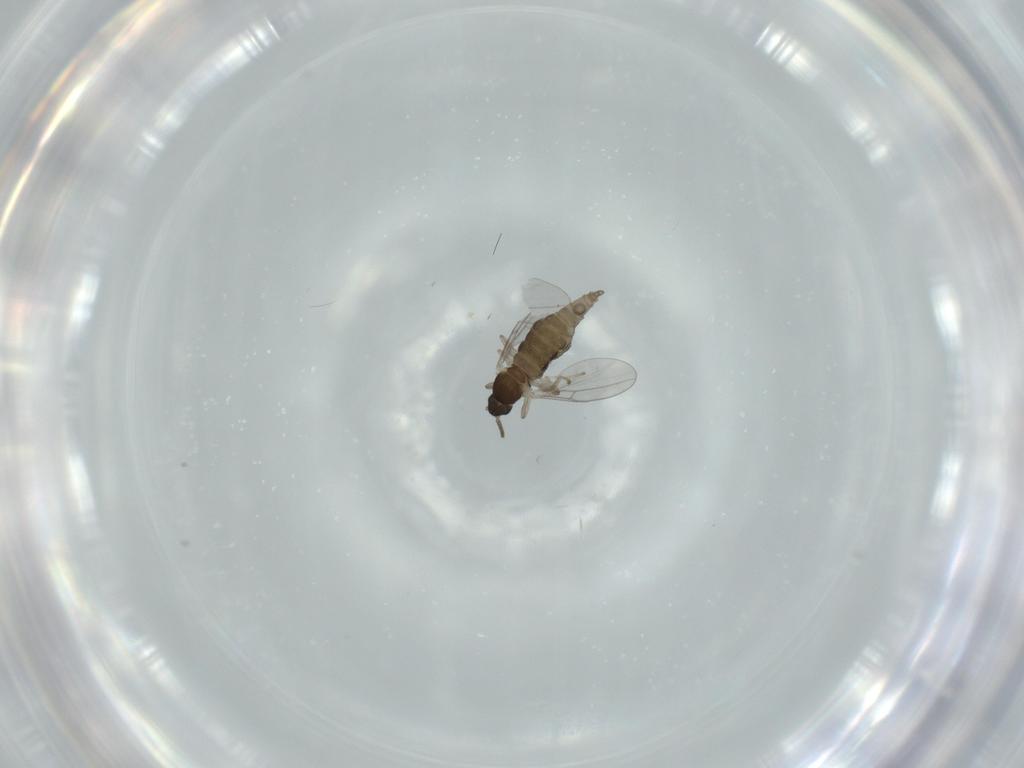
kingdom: Animalia
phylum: Arthropoda
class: Insecta
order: Diptera
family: Cecidomyiidae
